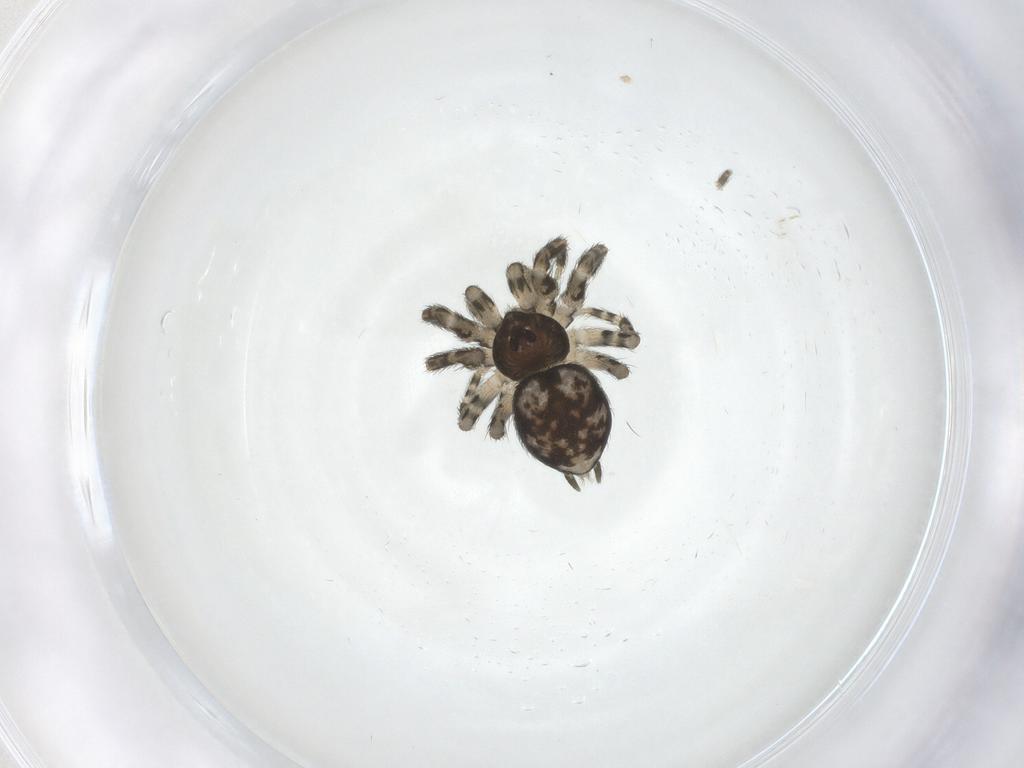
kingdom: Animalia
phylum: Arthropoda
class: Arachnida
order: Araneae
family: Oecobiidae
